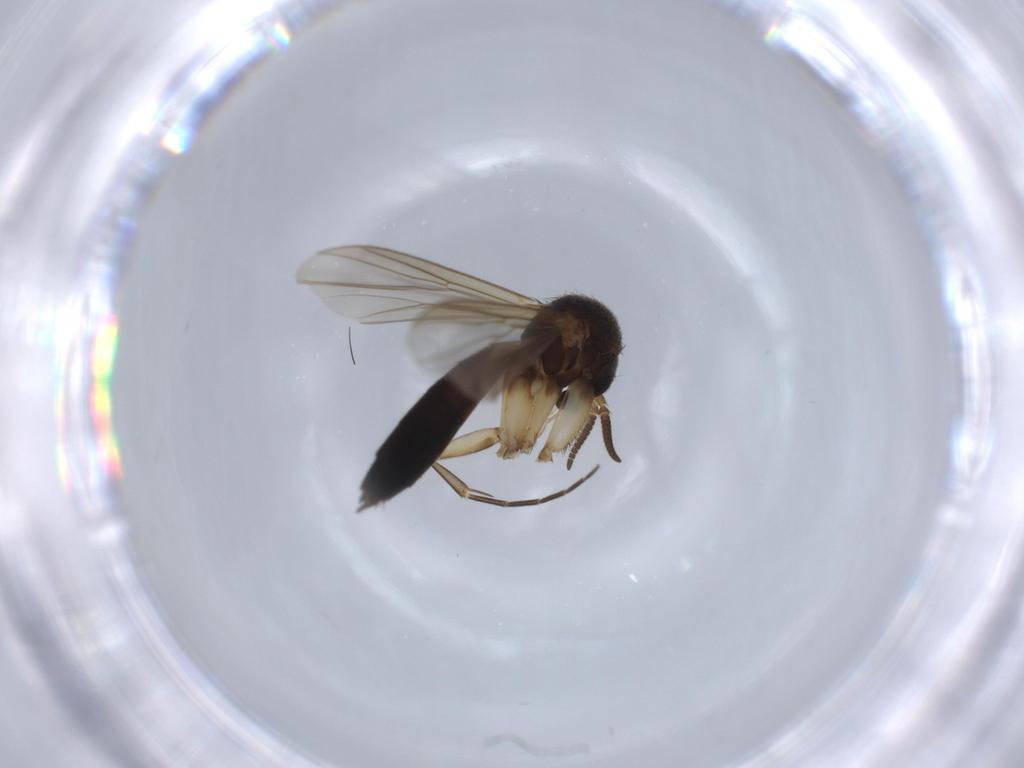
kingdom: Animalia
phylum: Arthropoda
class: Insecta
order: Diptera
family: Mycetophilidae
